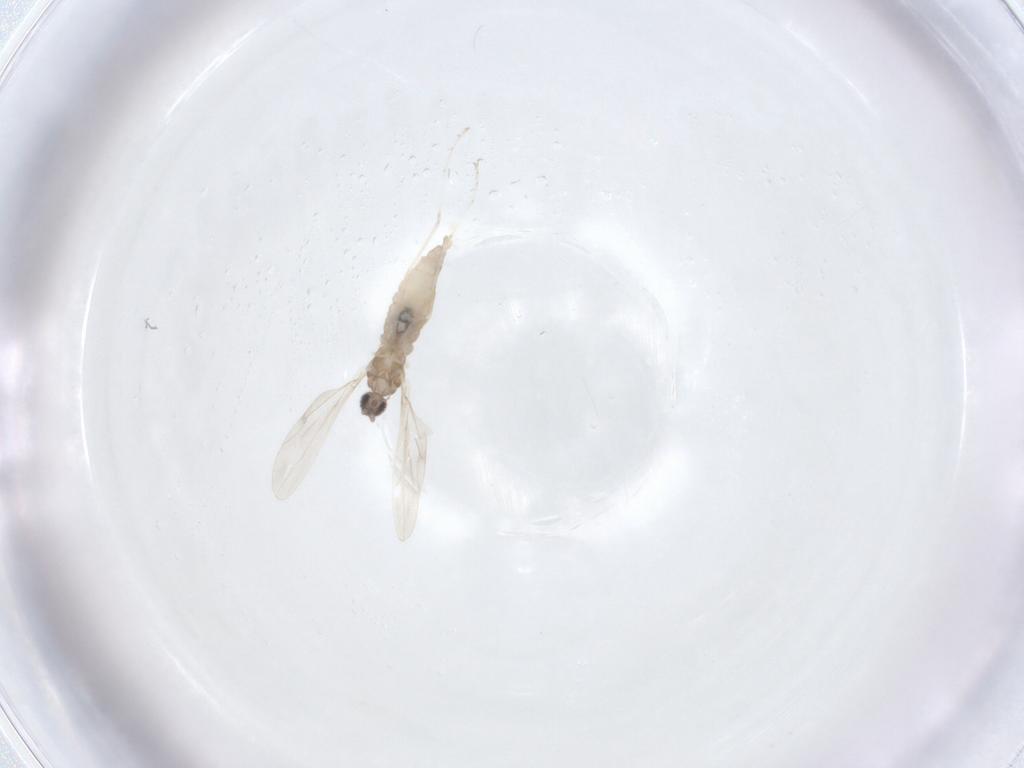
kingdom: Animalia
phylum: Arthropoda
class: Insecta
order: Diptera
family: Cecidomyiidae
